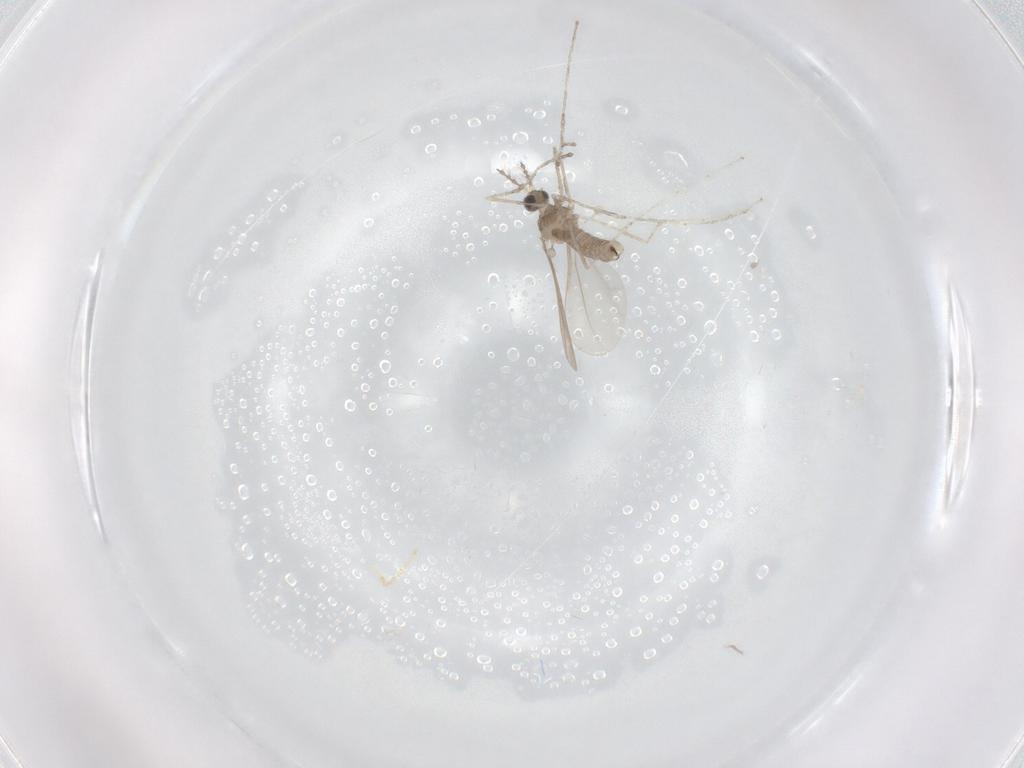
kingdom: Animalia
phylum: Arthropoda
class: Insecta
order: Diptera
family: Cecidomyiidae
